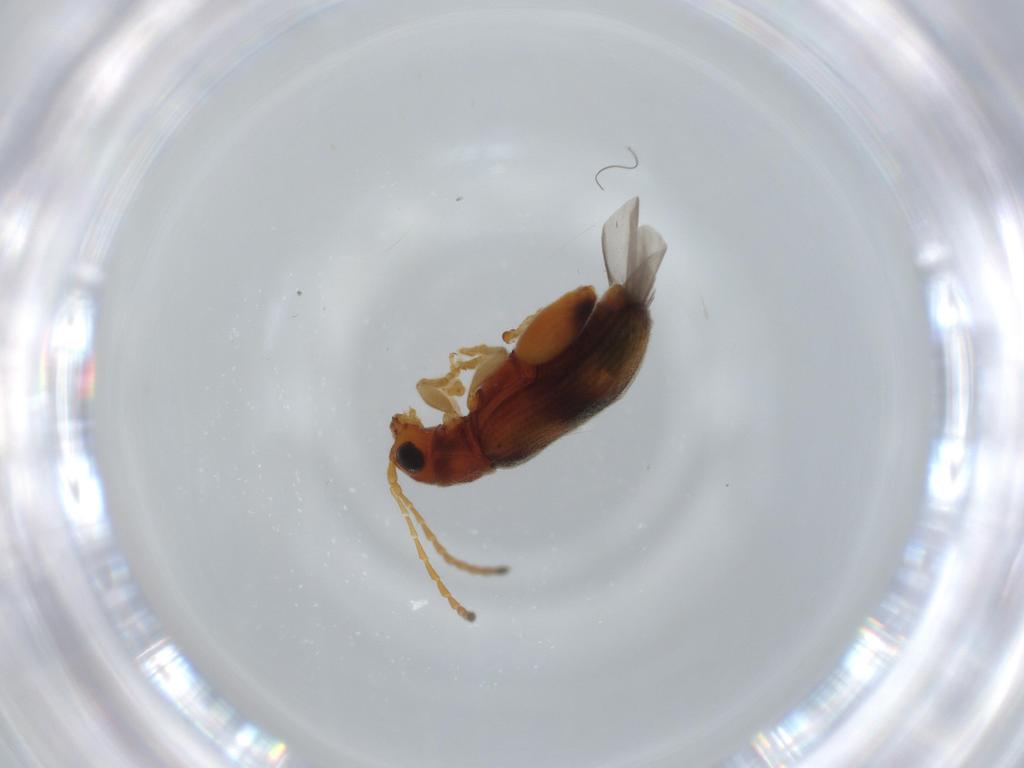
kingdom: Animalia
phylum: Arthropoda
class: Insecta
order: Coleoptera
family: Chrysomelidae
